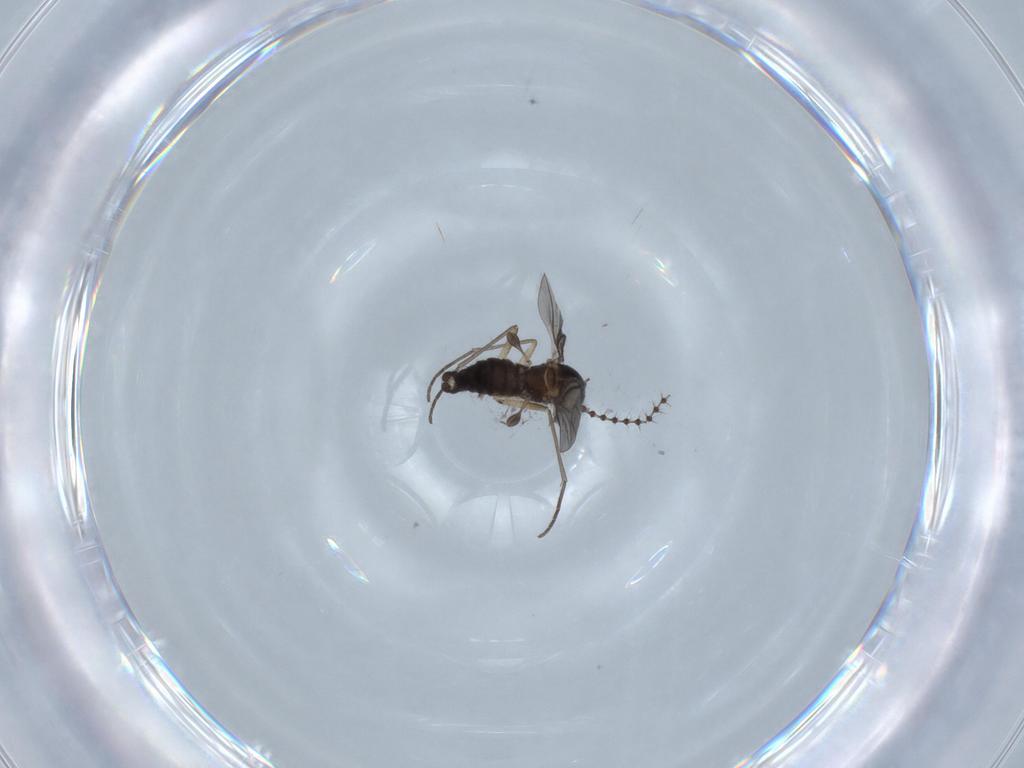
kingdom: Animalia
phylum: Arthropoda
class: Insecta
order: Diptera
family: Sciaridae
